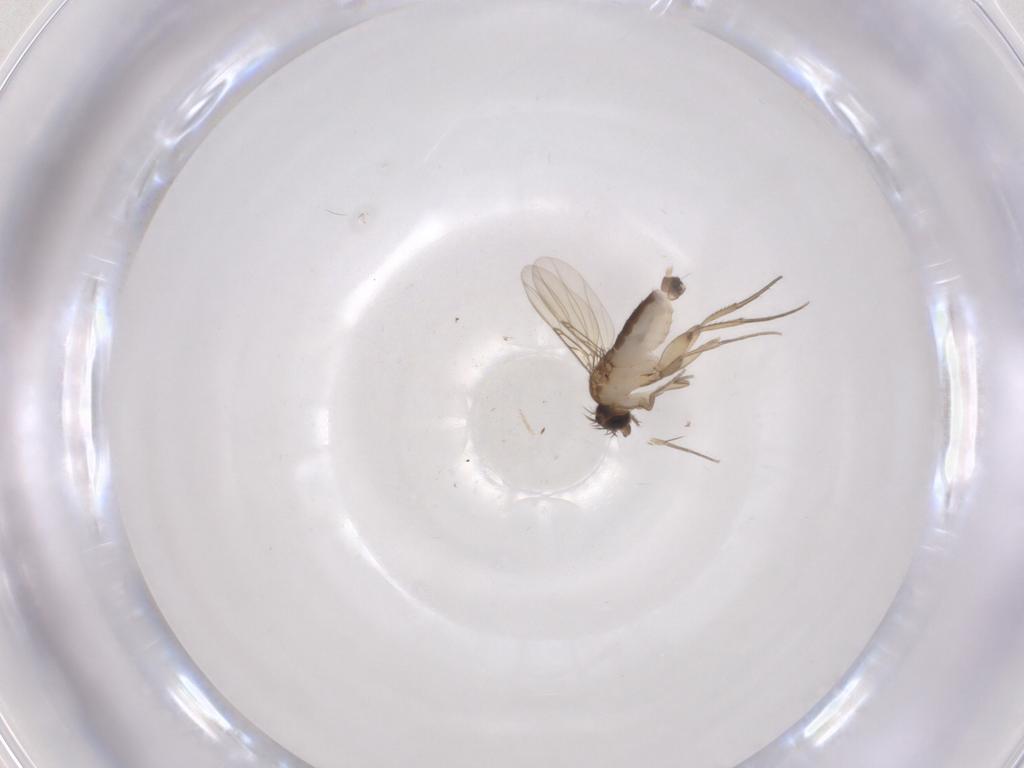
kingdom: Animalia
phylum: Arthropoda
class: Insecta
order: Diptera
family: Phoridae
